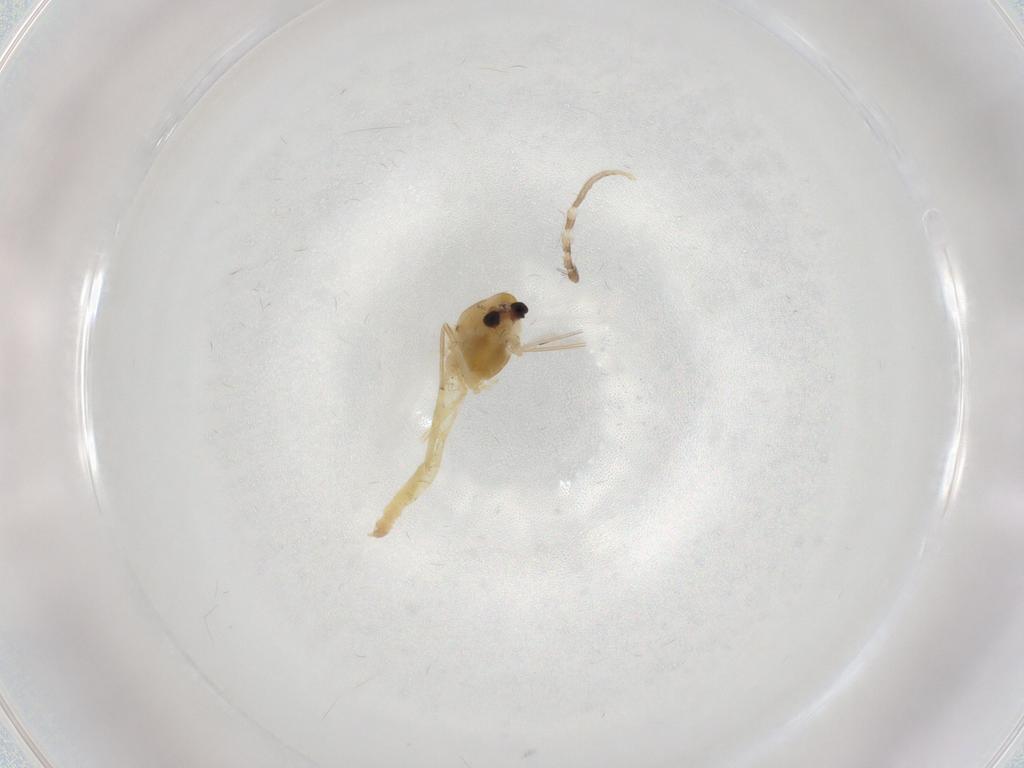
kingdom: Animalia
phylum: Arthropoda
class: Insecta
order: Diptera
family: Chironomidae
